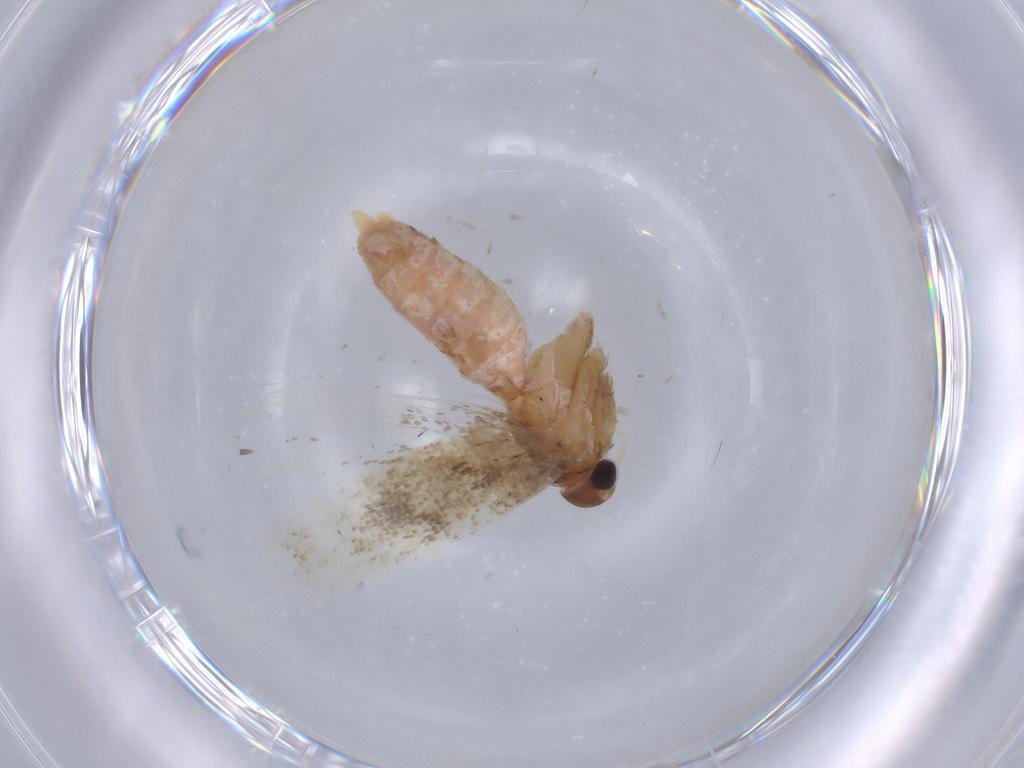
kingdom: Animalia
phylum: Arthropoda
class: Insecta
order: Lepidoptera
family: Gelechiidae
